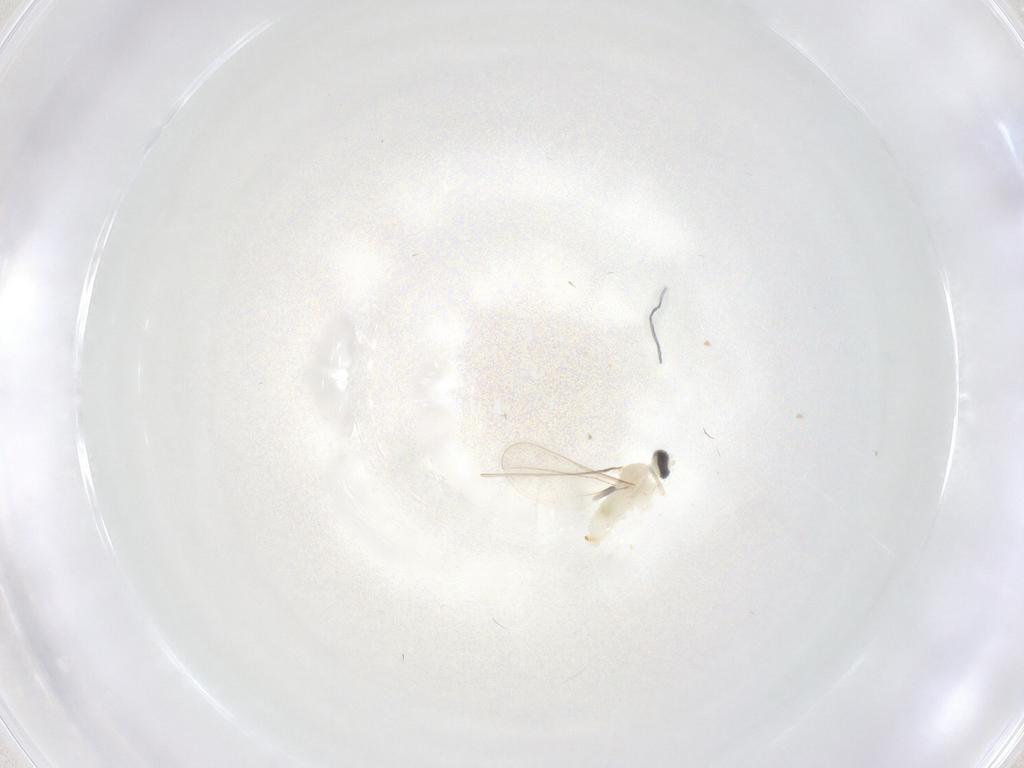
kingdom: Animalia
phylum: Arthropoda
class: Insecta
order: Diptera
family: Cecidomyiidae
